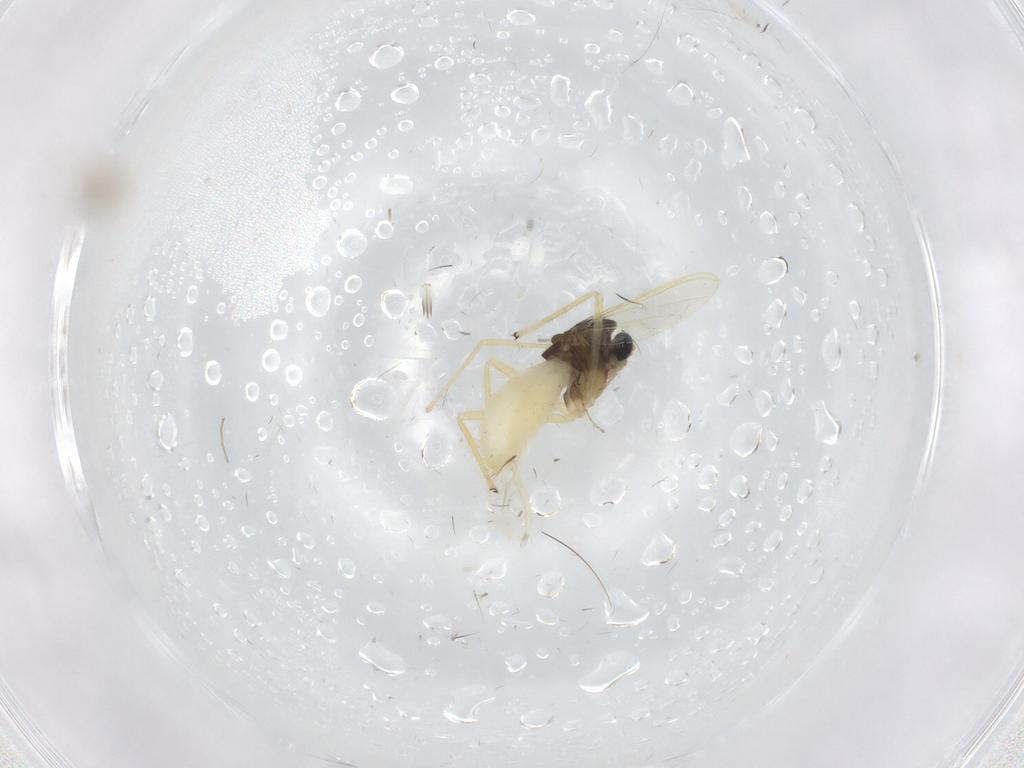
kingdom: Animalia
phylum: Arthropoda
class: Insecta
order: Diptera
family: Chironomidae
